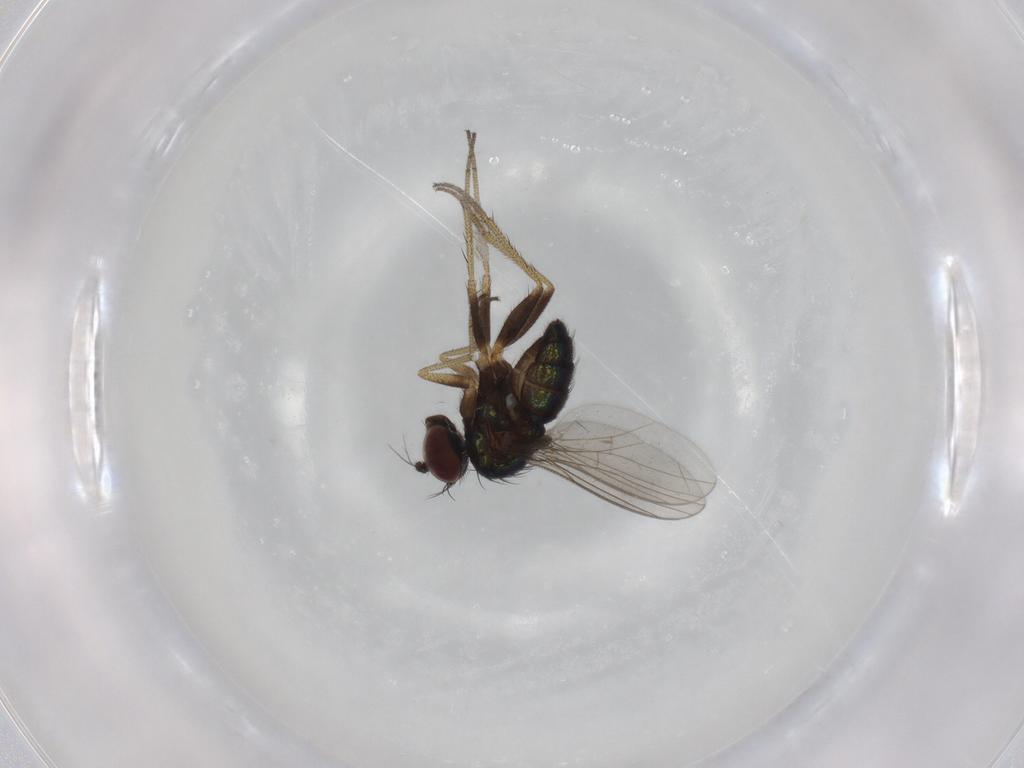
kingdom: Animalia
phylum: Arthropoda
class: Insecta
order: Diptera
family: Dolichopodidae
